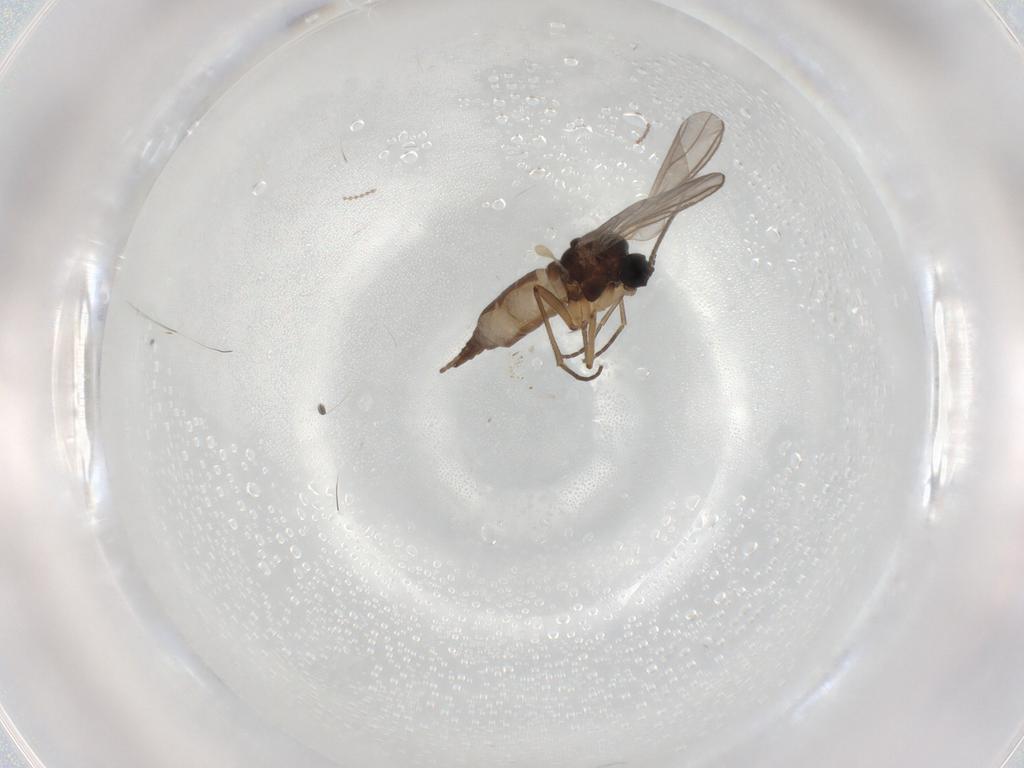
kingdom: Animalia
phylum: Arthropoda
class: Insecta
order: Diptera
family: Sciaridae
